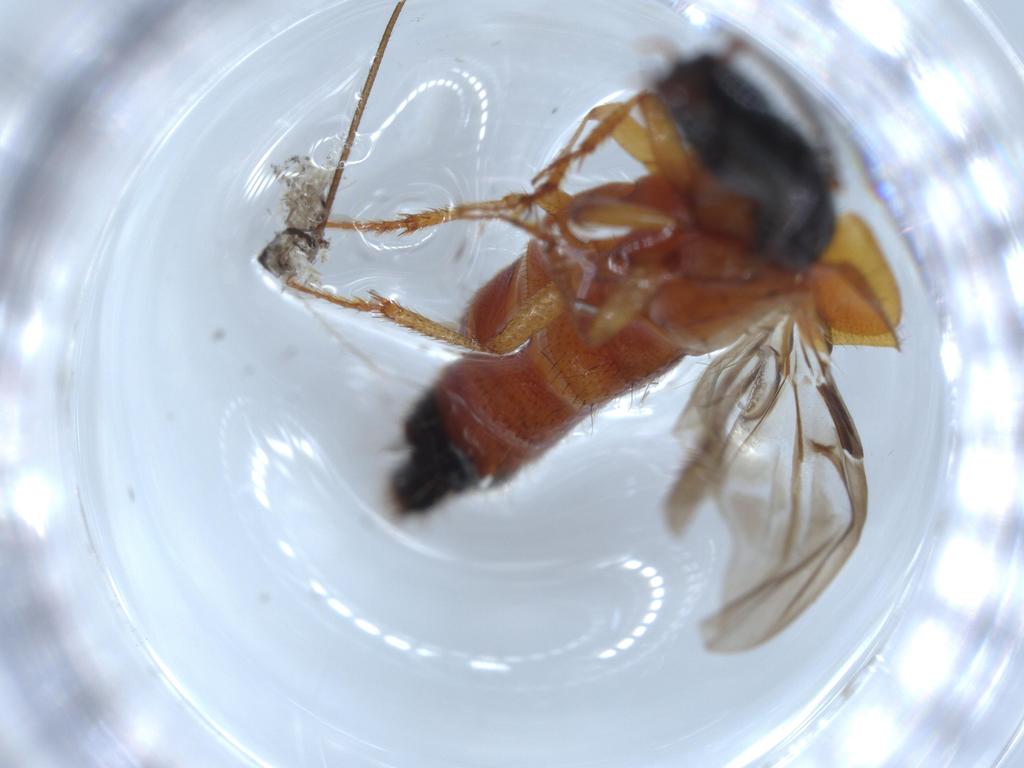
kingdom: Animalia
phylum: Arthropoda
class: Insecta
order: Coleoptera
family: Staphylinidae
